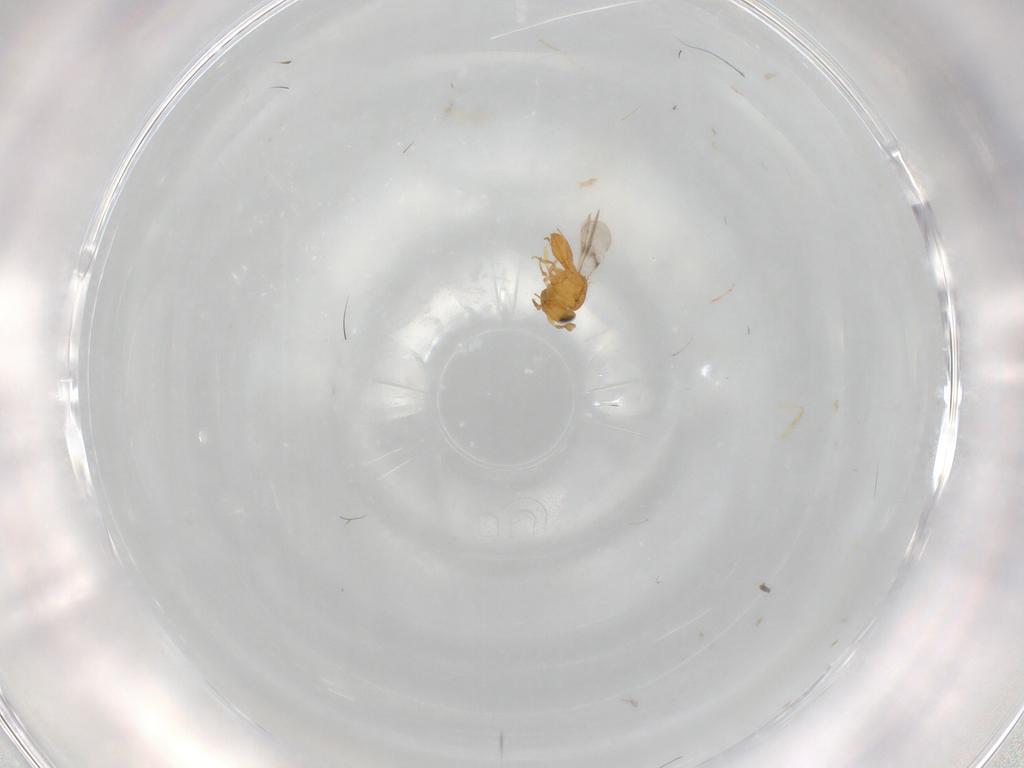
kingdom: Animalia
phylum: Arthropoda
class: Insecta
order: Hymenoptera
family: Scelionidae
